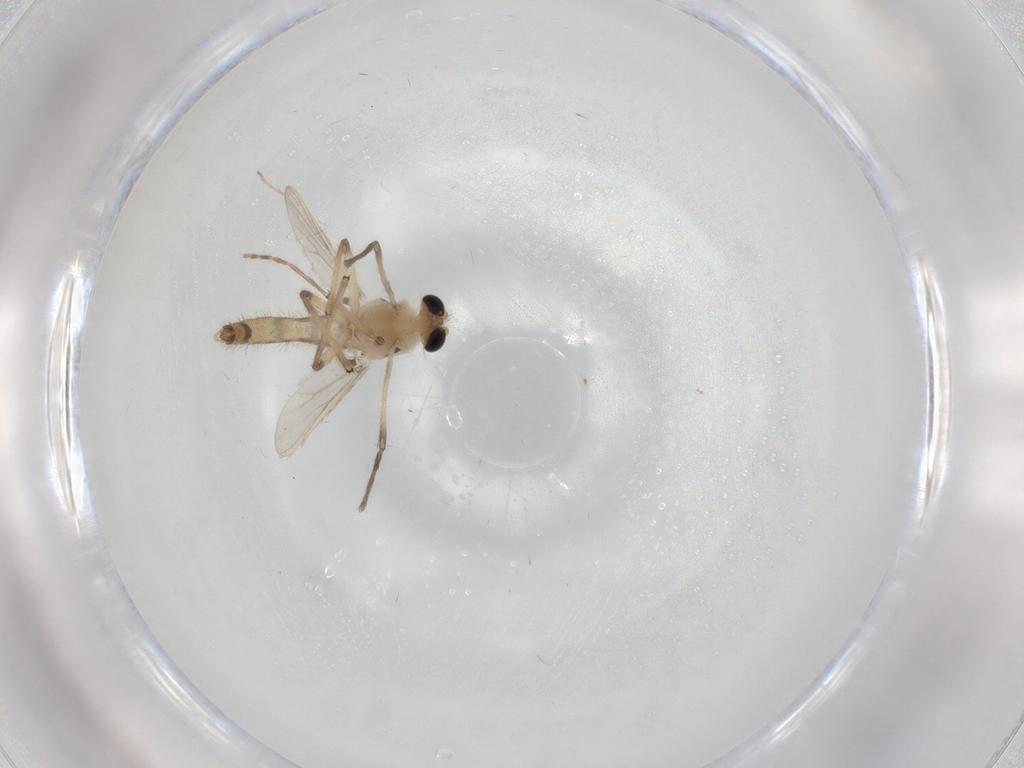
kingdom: Animalia
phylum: Arthropoda
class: Insecta
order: Diptera
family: Chironomidae
